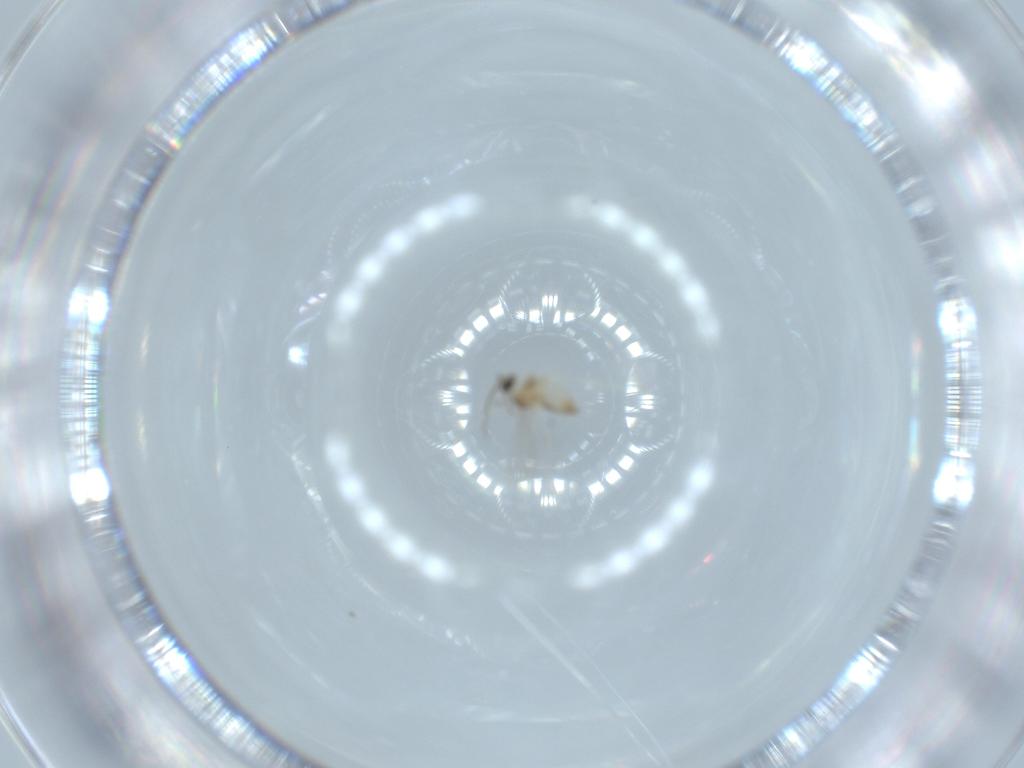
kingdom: Animalia
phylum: Arthropoda
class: Insecta
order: Diptera
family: Cecidomyiidae
